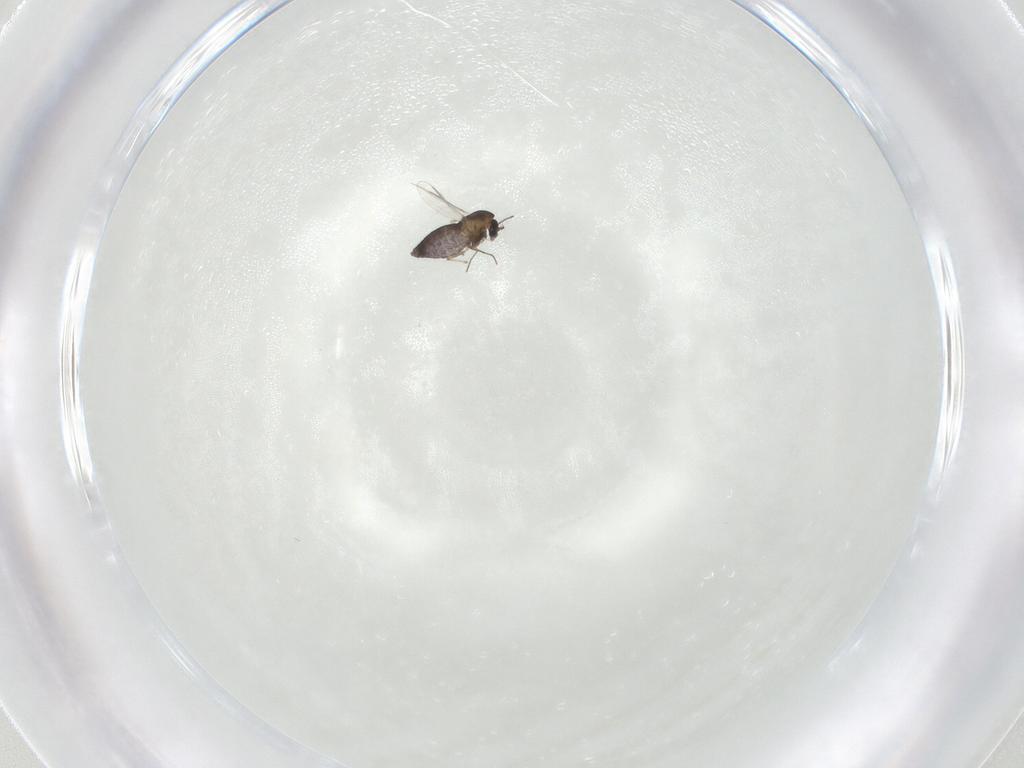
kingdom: Animalia
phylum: Arthropoda
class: Insecta
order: Diptera
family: Chironomidae
